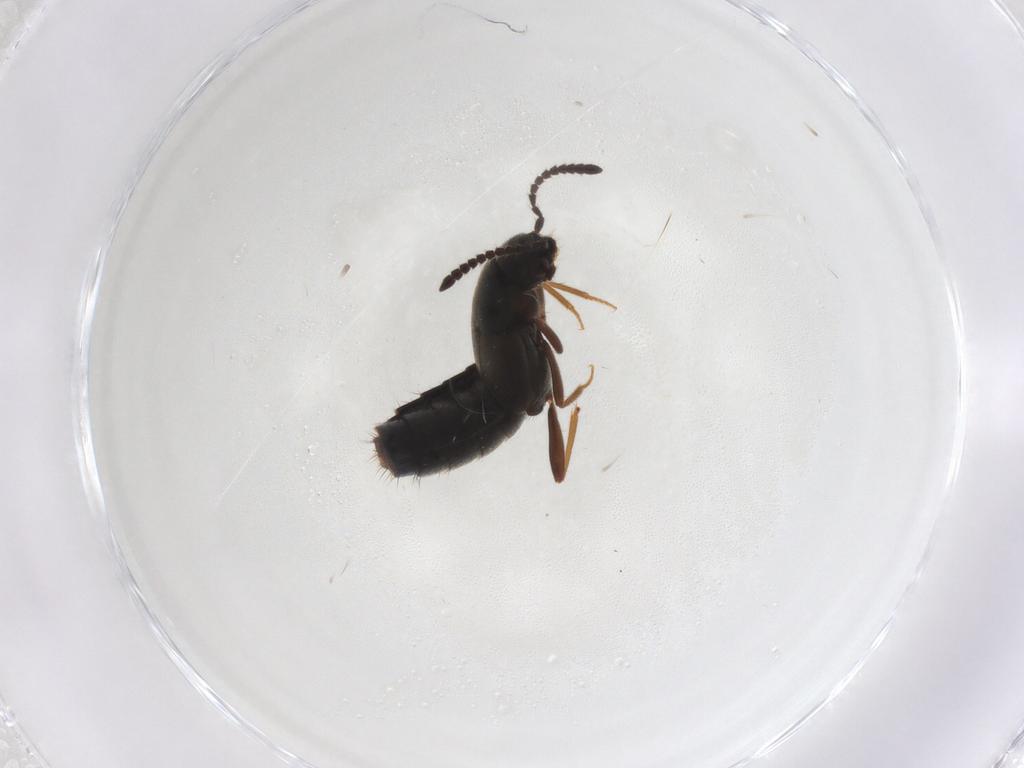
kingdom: Animalia
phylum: Arthropoda
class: Insecta
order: Coleoptera
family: Staphylinidae
